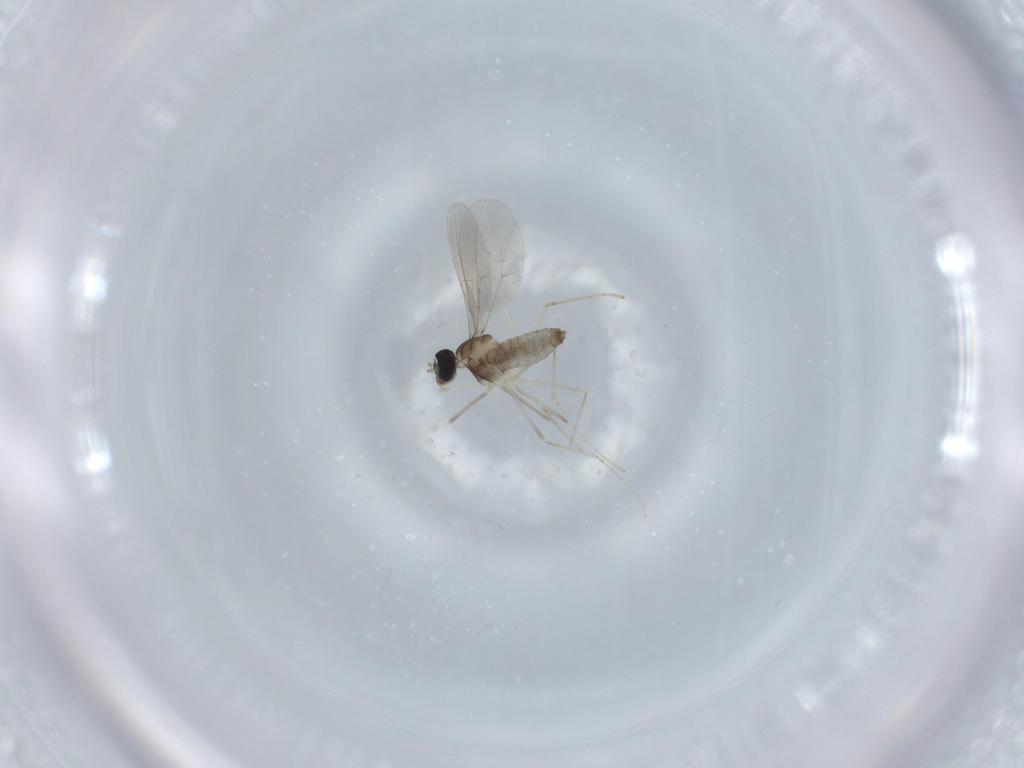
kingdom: Animalia
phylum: Arthropoda
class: Insecta
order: Diptera
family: Cecidomyiidae
